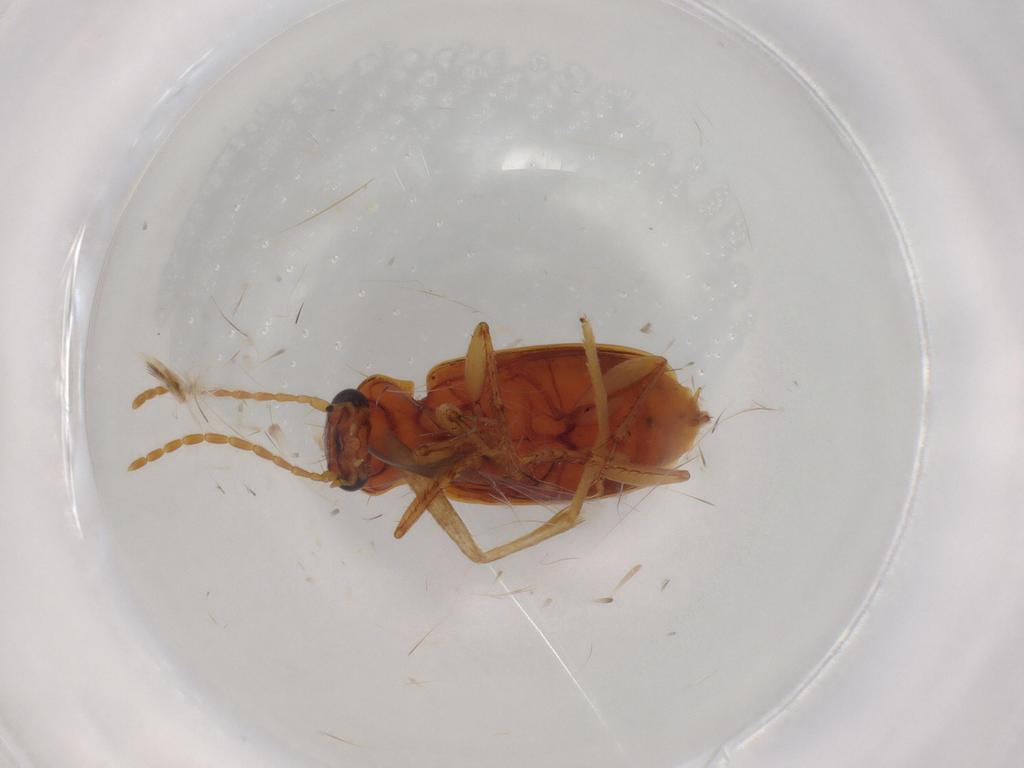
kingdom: Animalia
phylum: Arthropoda
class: Insecta
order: Coleoptera
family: Carabidae
